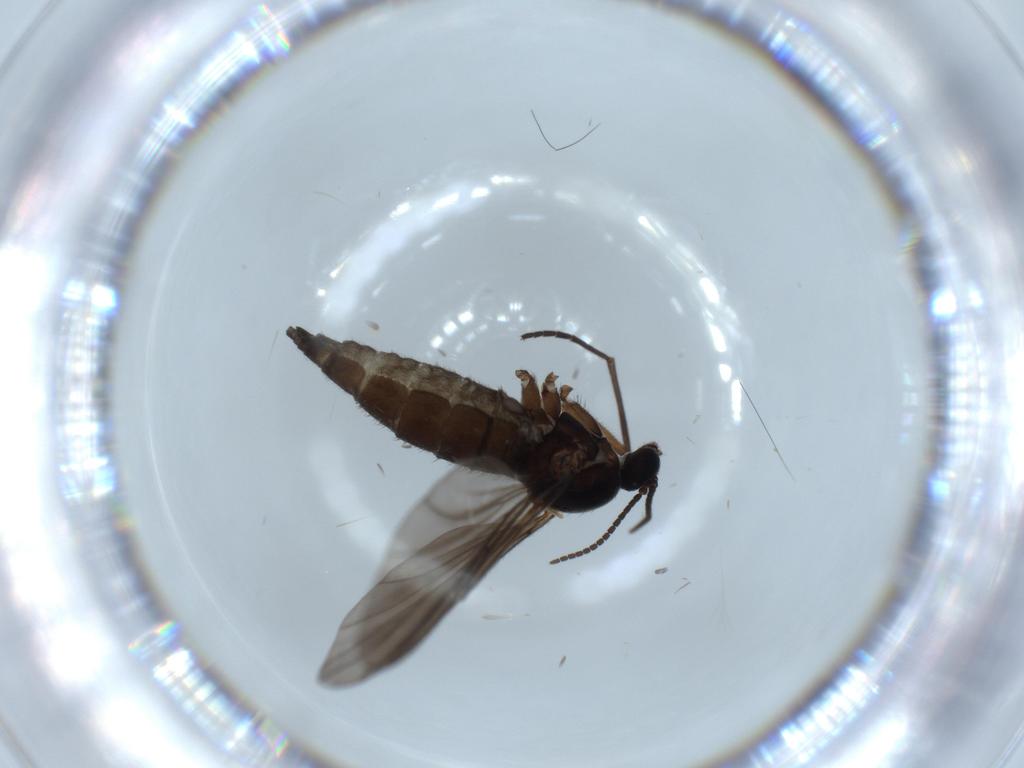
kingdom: Animalia
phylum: Arthropoda
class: Insecta
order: Diptera
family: Sciaridae
